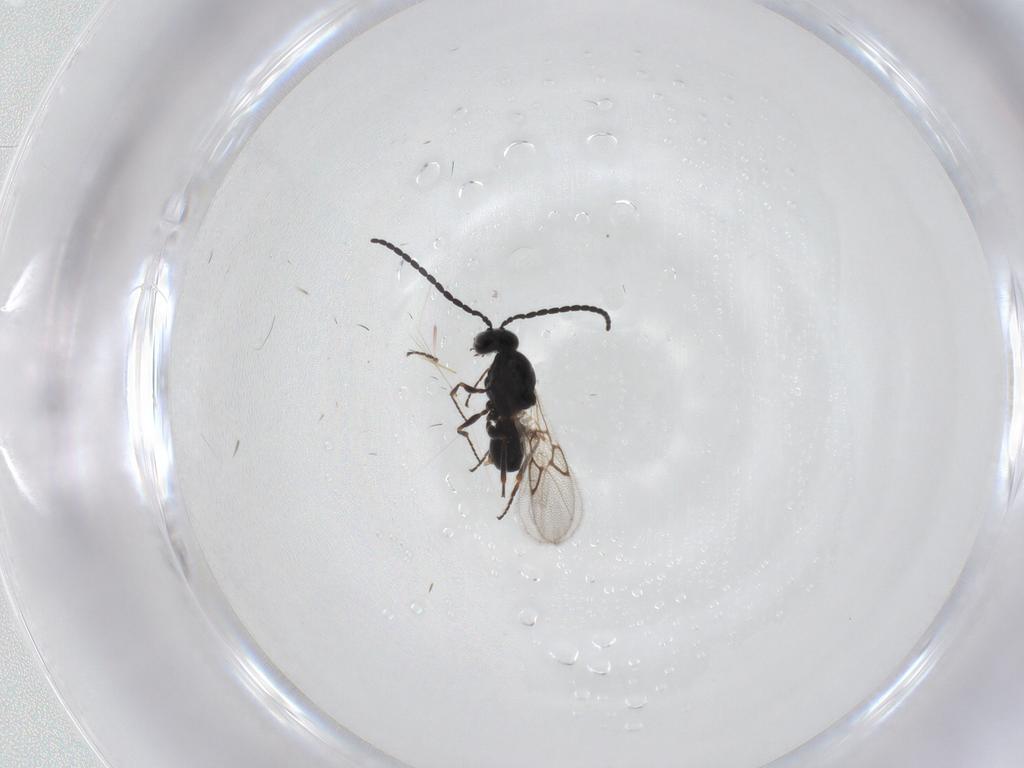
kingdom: Animalia
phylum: Arthropoda
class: Insecta
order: Hymenoptera
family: Figitidae
